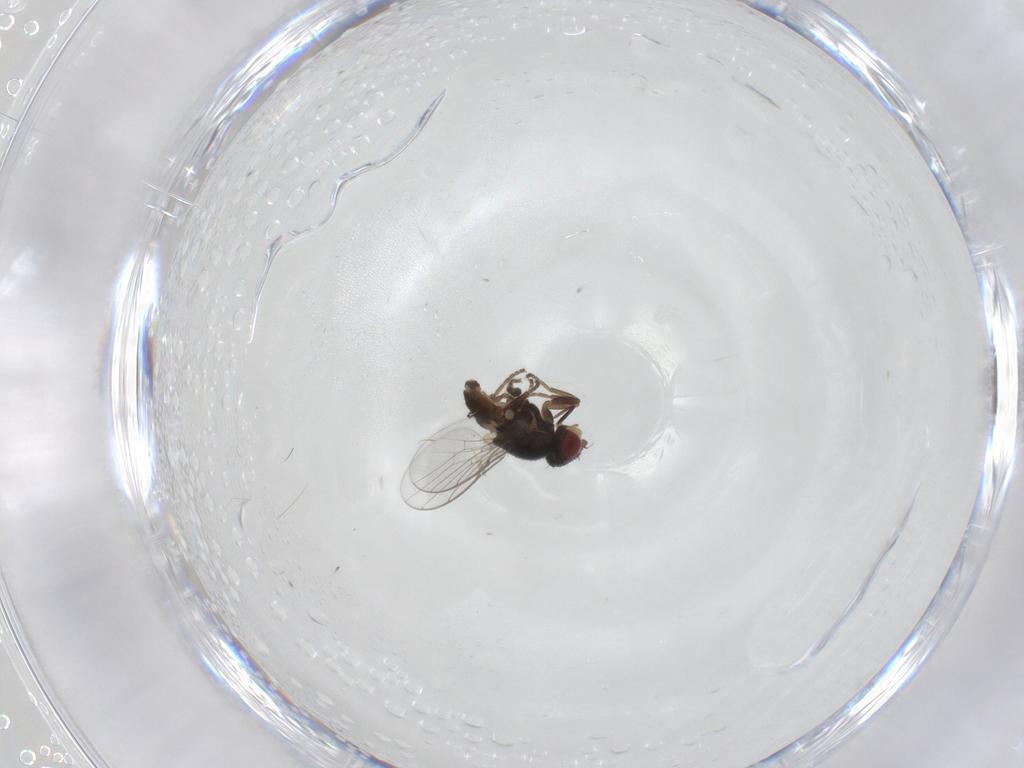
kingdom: Animalia
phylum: Arthropoda
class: Insecta
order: Diptera
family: Chloropidae
